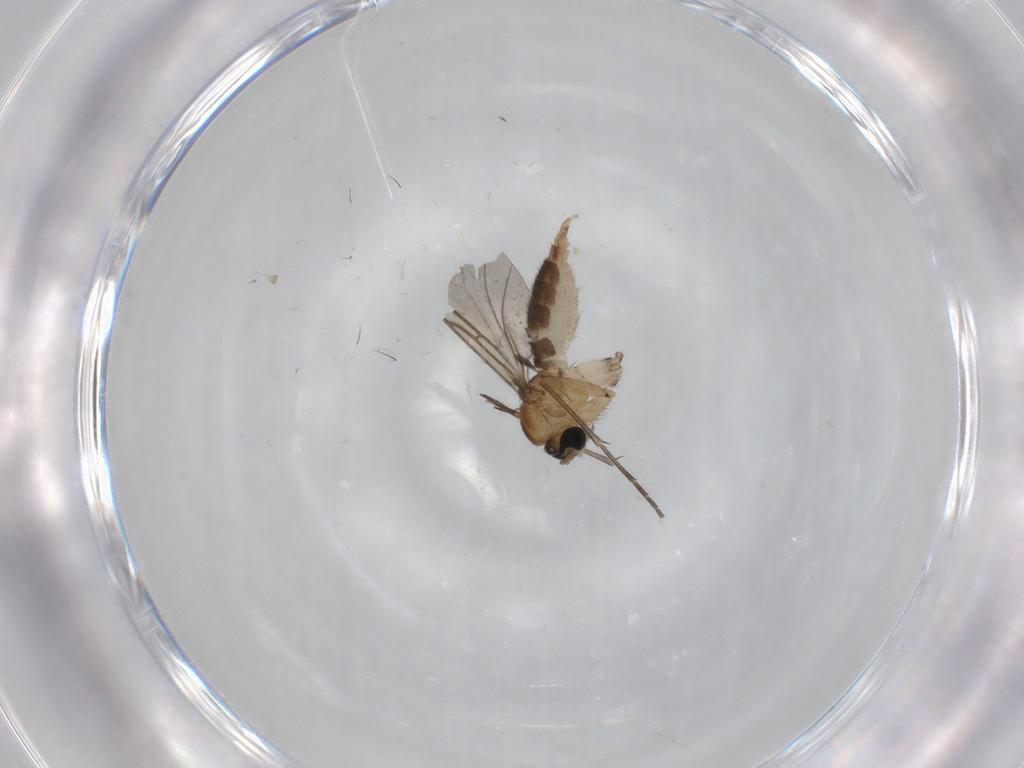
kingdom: Animalia
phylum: Arthropoda
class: Insecta
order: Diptera
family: Sciaridae
